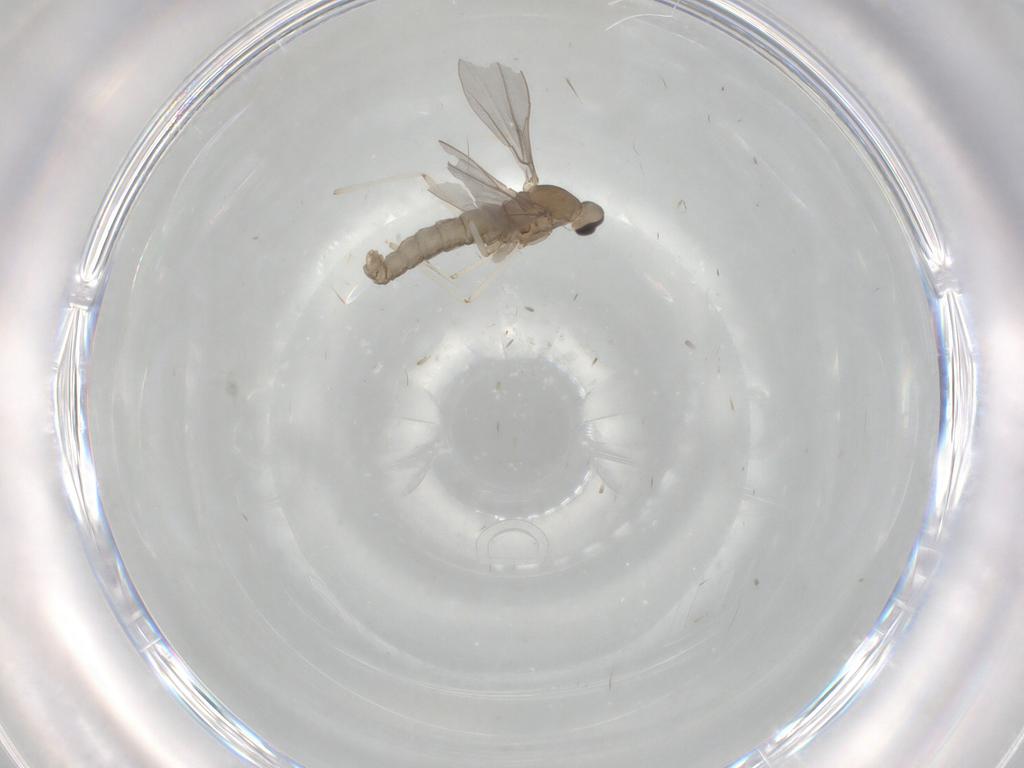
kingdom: Animalia
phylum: Arthropoda
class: Insecta
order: Diptera
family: Cecidomyiidae
